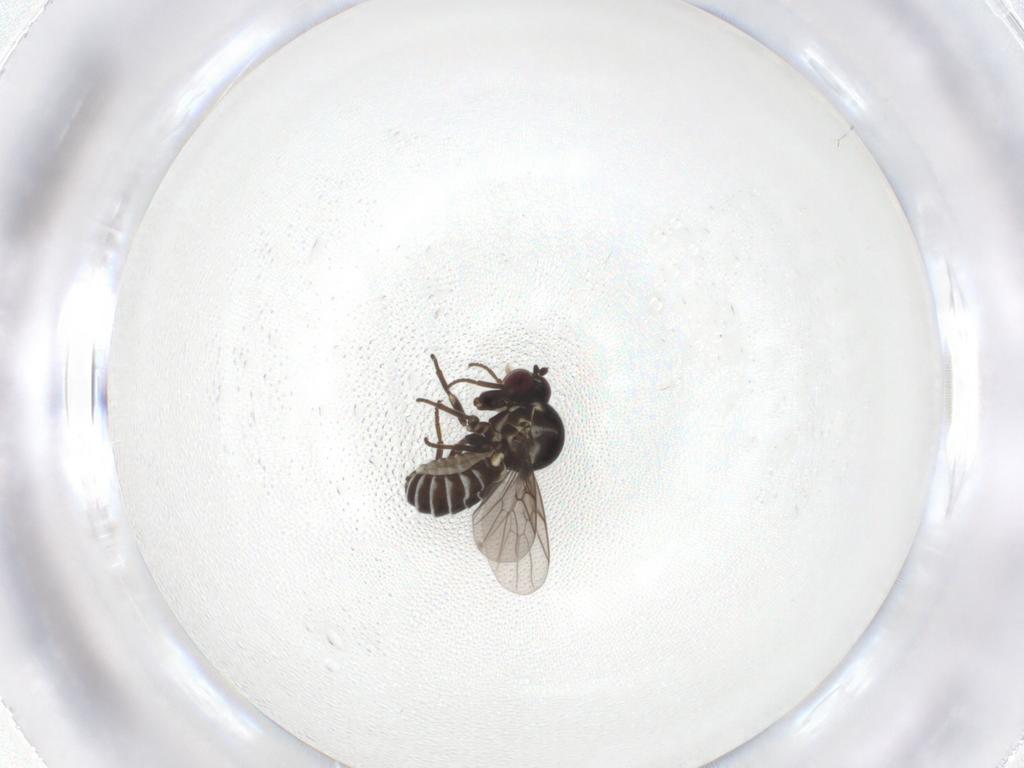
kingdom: Animalia
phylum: Arthropoda
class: Insecta
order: Diptera
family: Bombyliidae
